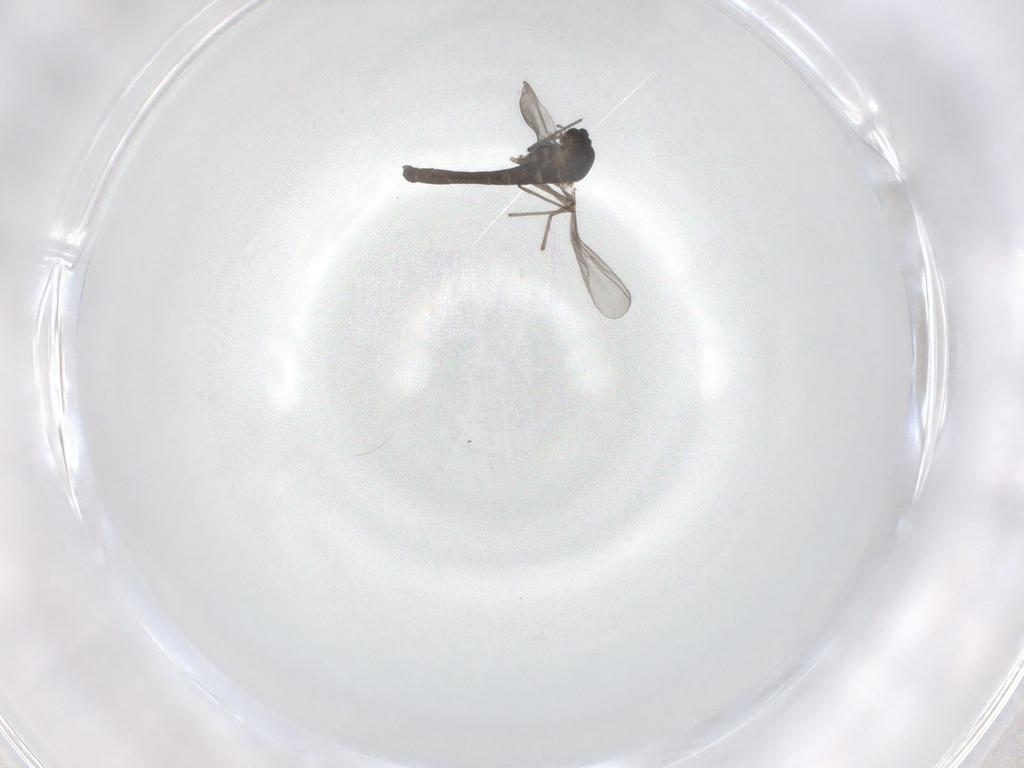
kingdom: Animalia
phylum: Arthropoda
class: Insecta
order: Diptera
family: Chironomidae
